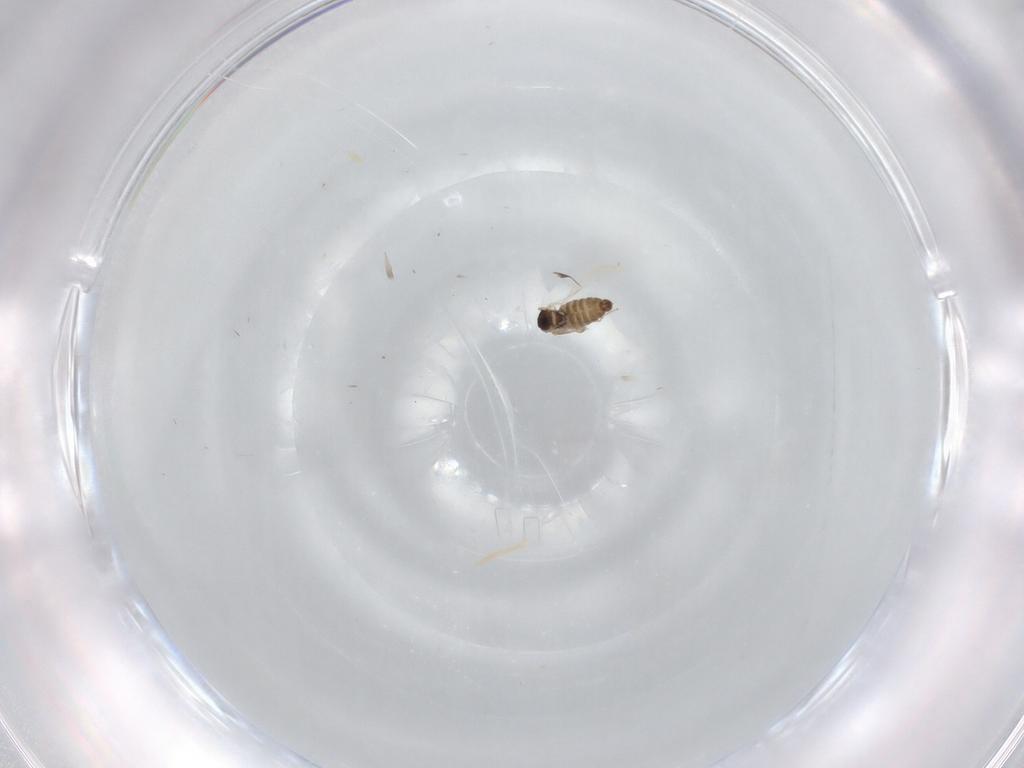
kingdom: Animalia
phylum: Arthropoda
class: Insecta
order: Diptera
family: Cecidomyiidae
